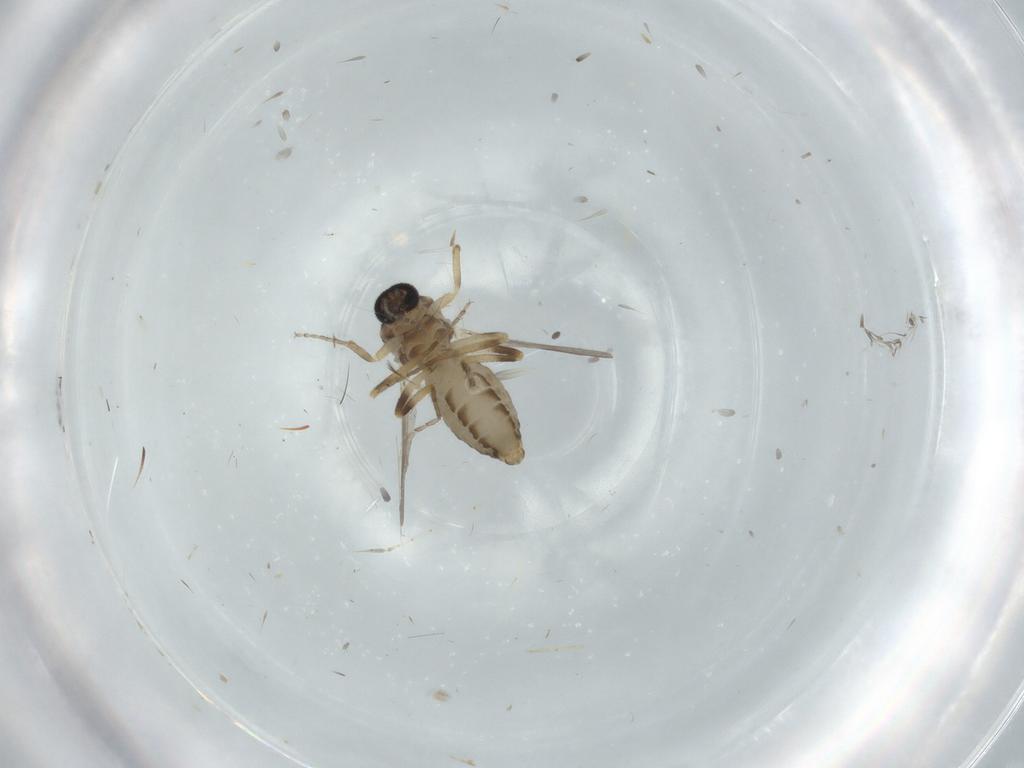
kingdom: Animalia
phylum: Arthropoda
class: Insecta
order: Diptera
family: Ceratopogonidae
